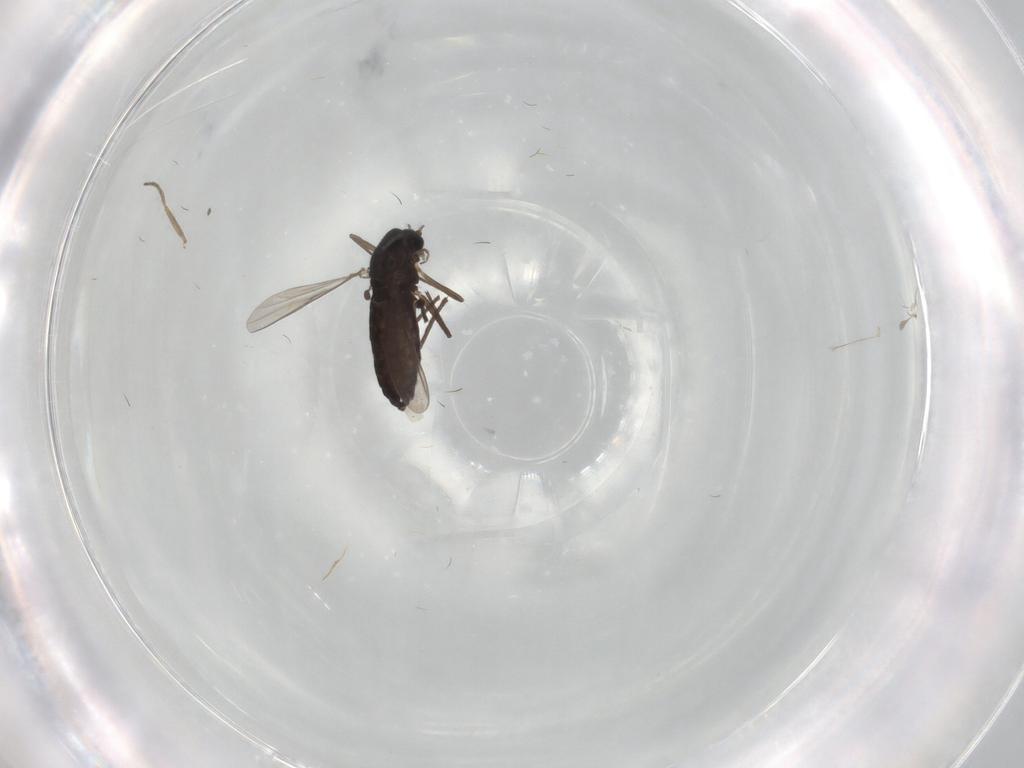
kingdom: Animalia
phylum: Arthropoda
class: Insecta
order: Diptera
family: Chironomidae
